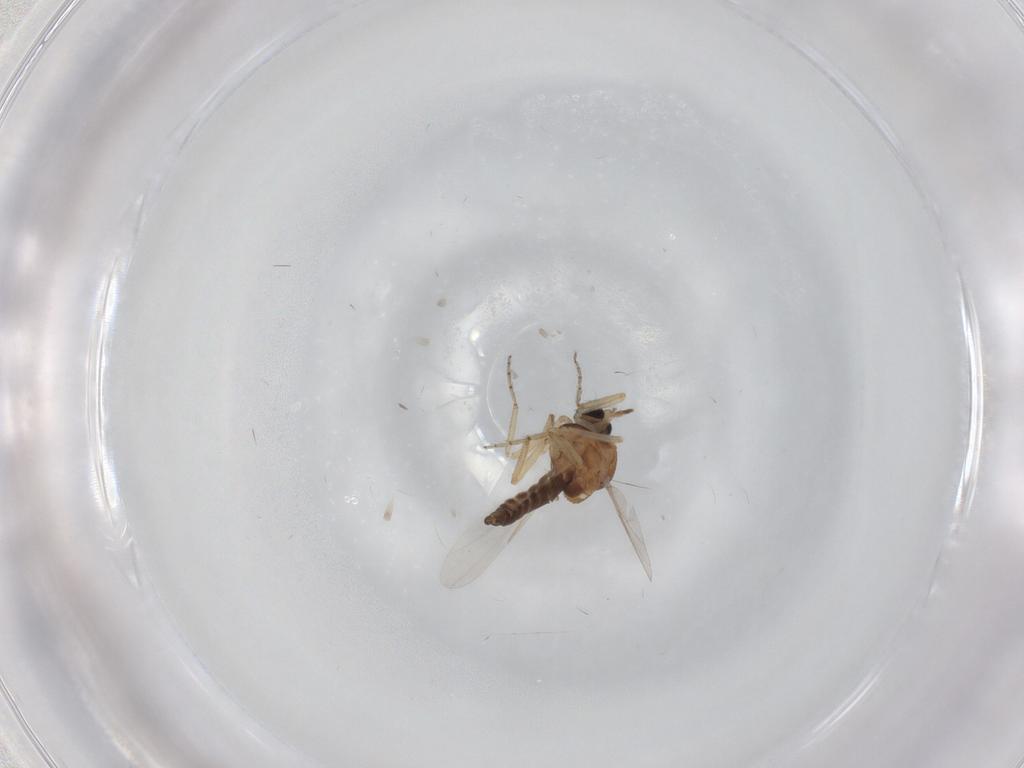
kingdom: Animalia
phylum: Arthropoda
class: Insecta
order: Diptera
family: Ceratopogonidae
